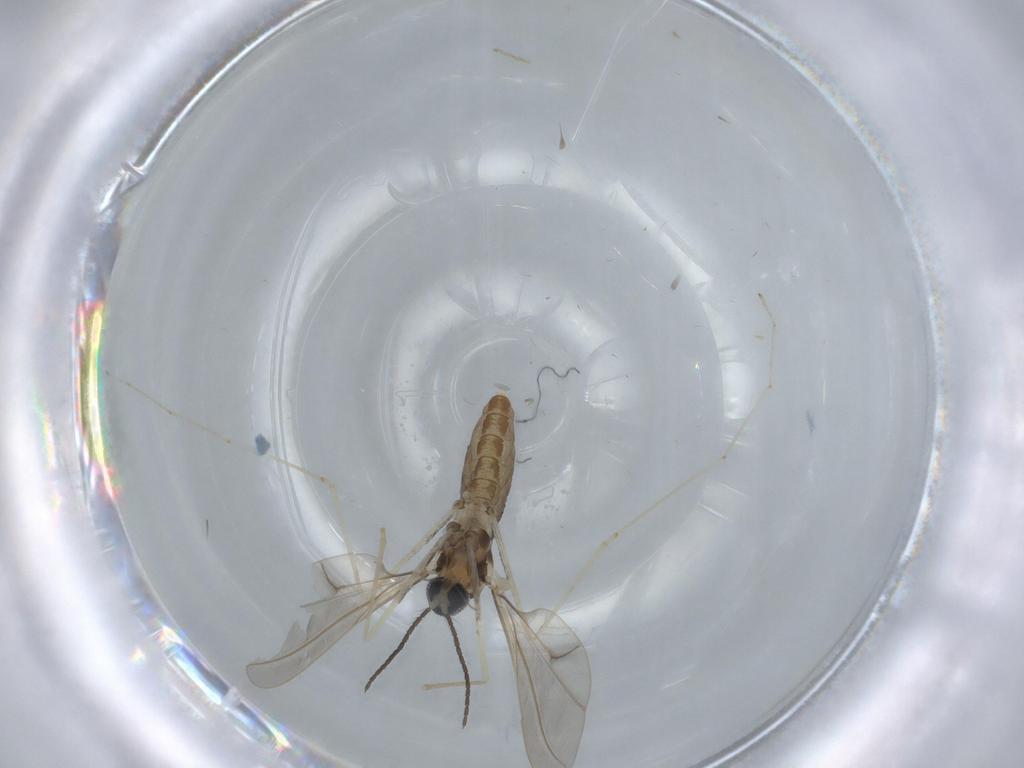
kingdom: Animalia
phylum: Arthropoda
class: Insecta
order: Diptera
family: Cecidomyiidae
